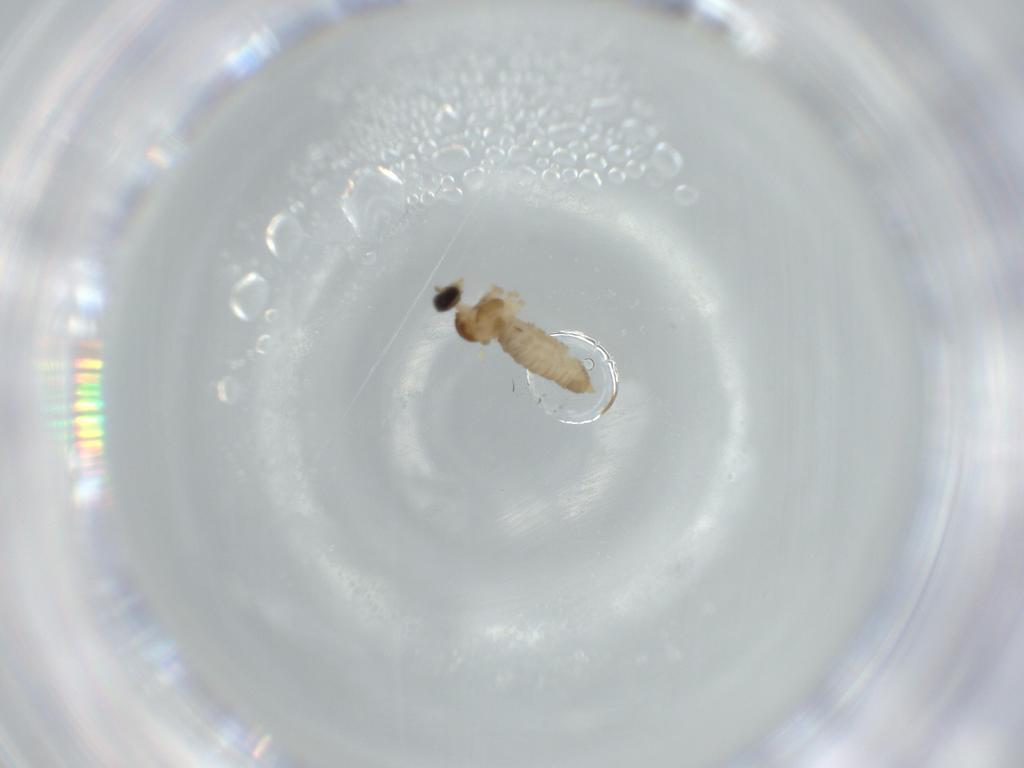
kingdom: Animalia
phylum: Arthropoda
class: Insecta
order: Diptera
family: Cecidomyiidae
